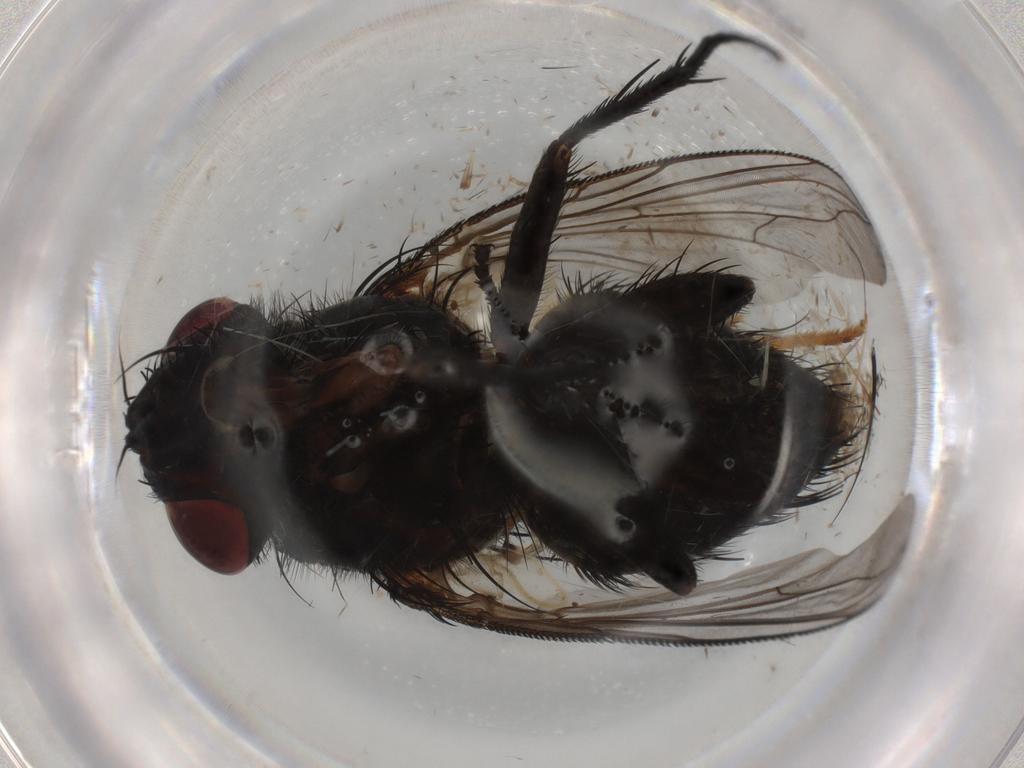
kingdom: Animalia
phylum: Arthropoda
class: Insecta
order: Diptera
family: Tachinidae
